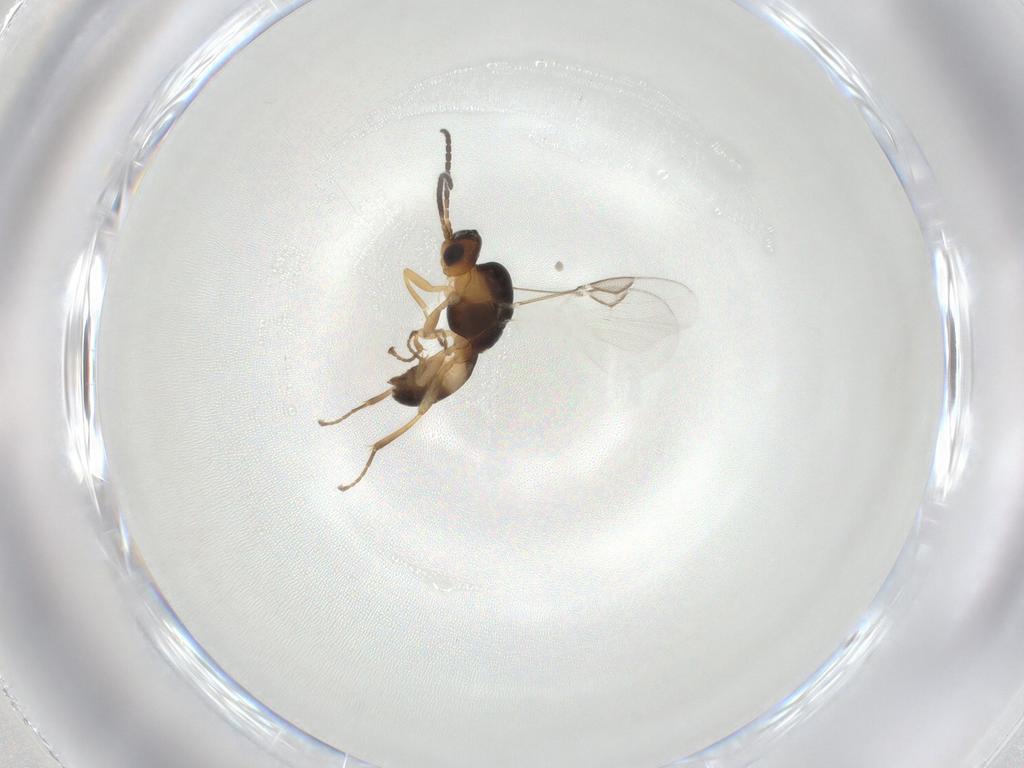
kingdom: Animalia
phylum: Arthropoda
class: Insecta
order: Hymenoptera
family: Braconidae
